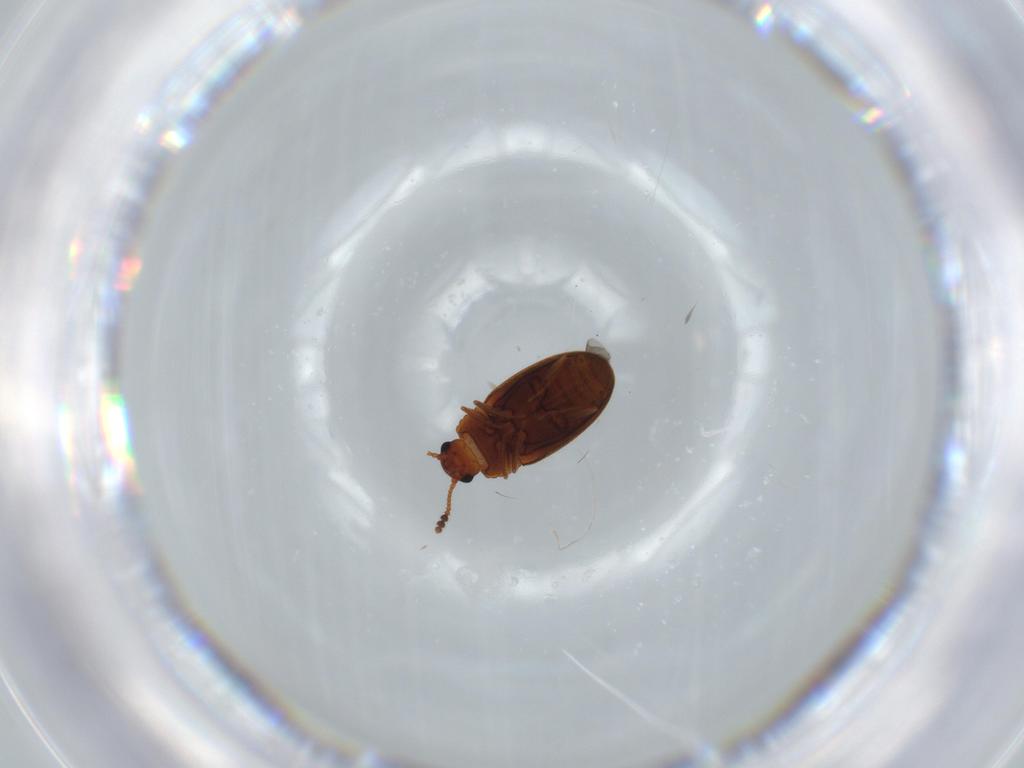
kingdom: Animalia
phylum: Arthropoda
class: Insecta
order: Coleoptera
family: Erotylidae
